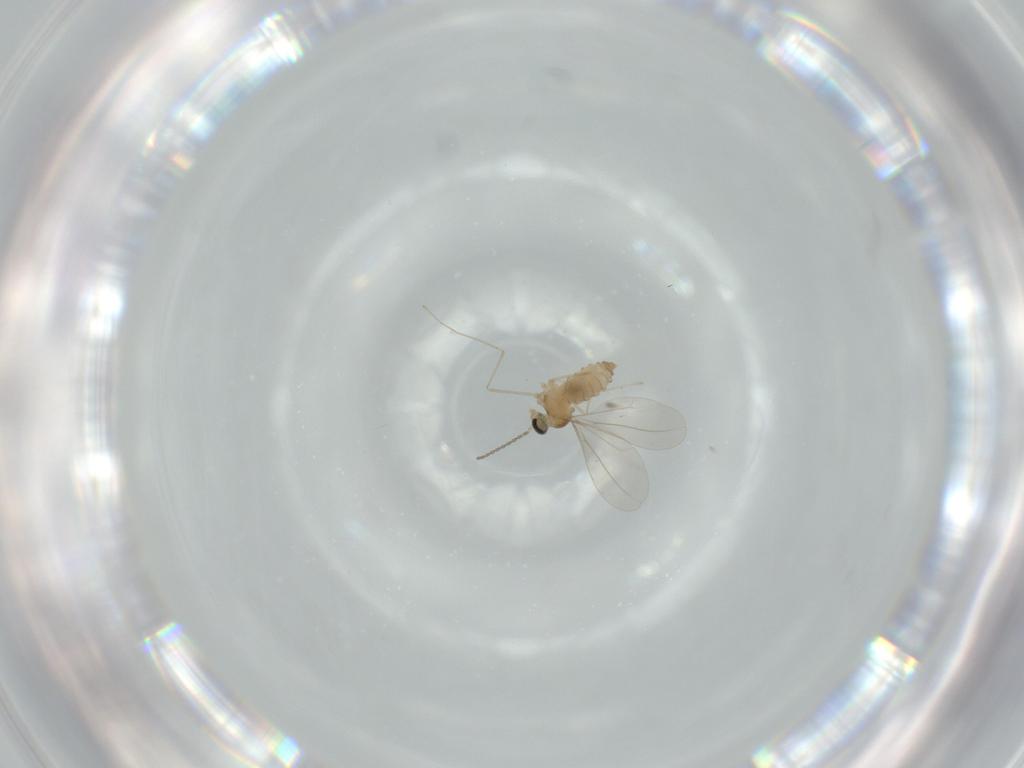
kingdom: Animalia
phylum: Arthropoda
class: Insecta
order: Diptera
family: Cecidomyiidae
